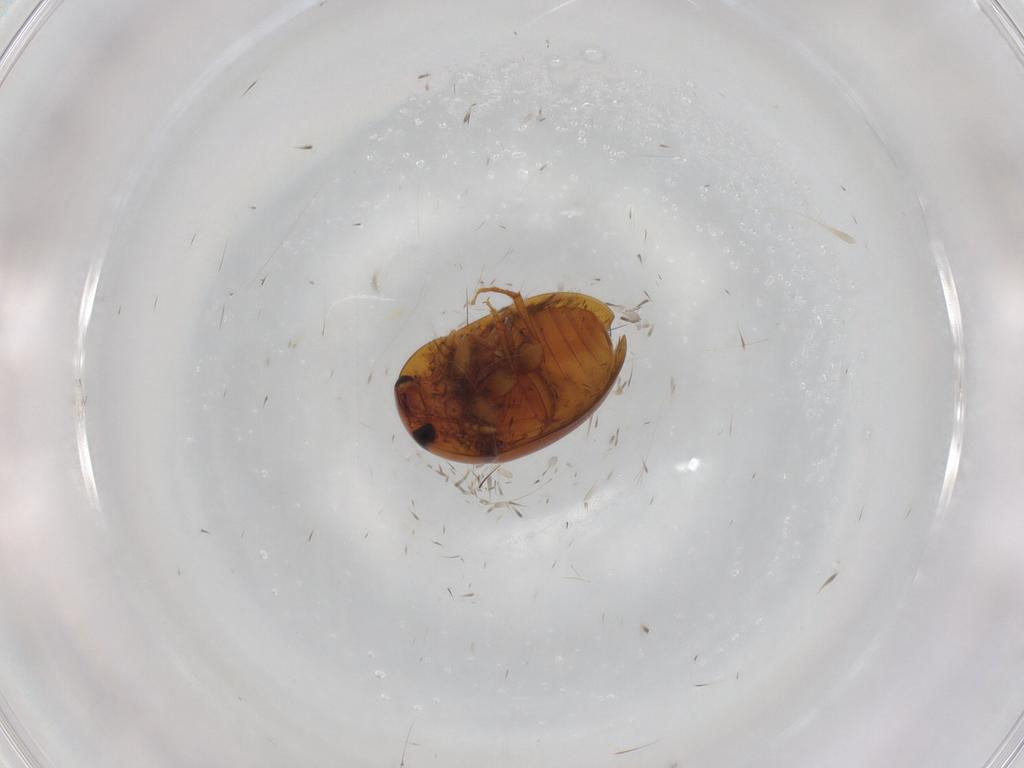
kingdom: Animalia
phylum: Arthropoda
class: Insecta
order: Coleoptera
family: Phalacridae
